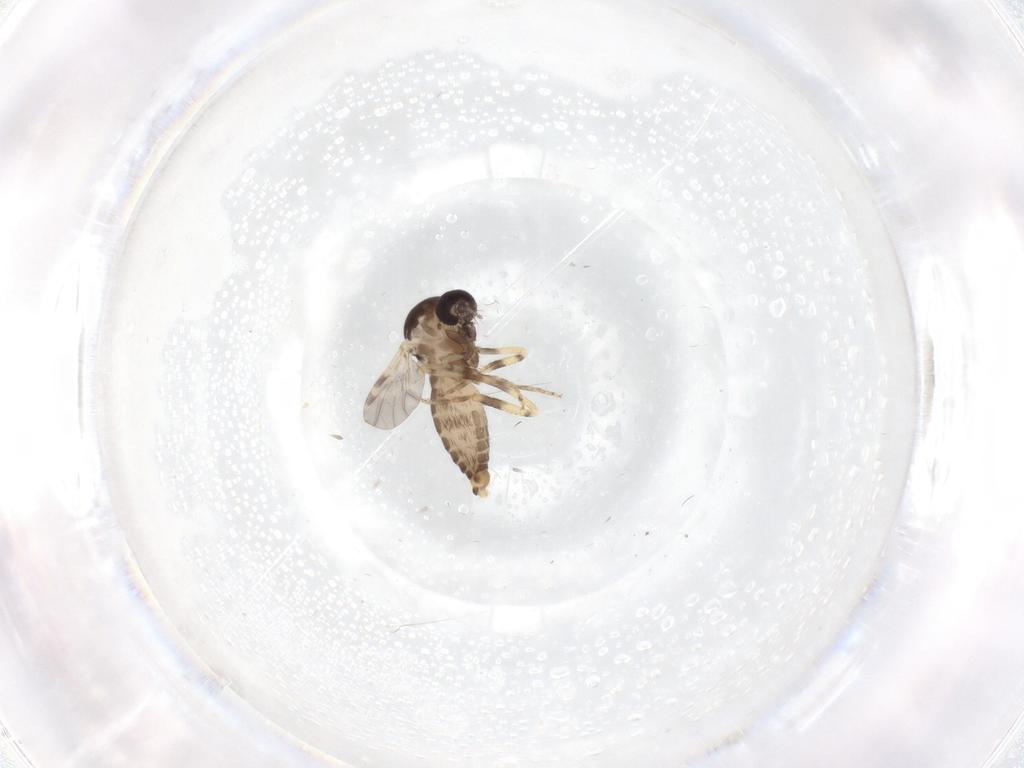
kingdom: Animalia
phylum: Arthropoda
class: Insecta
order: Diptera
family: Ceratopogonidae
